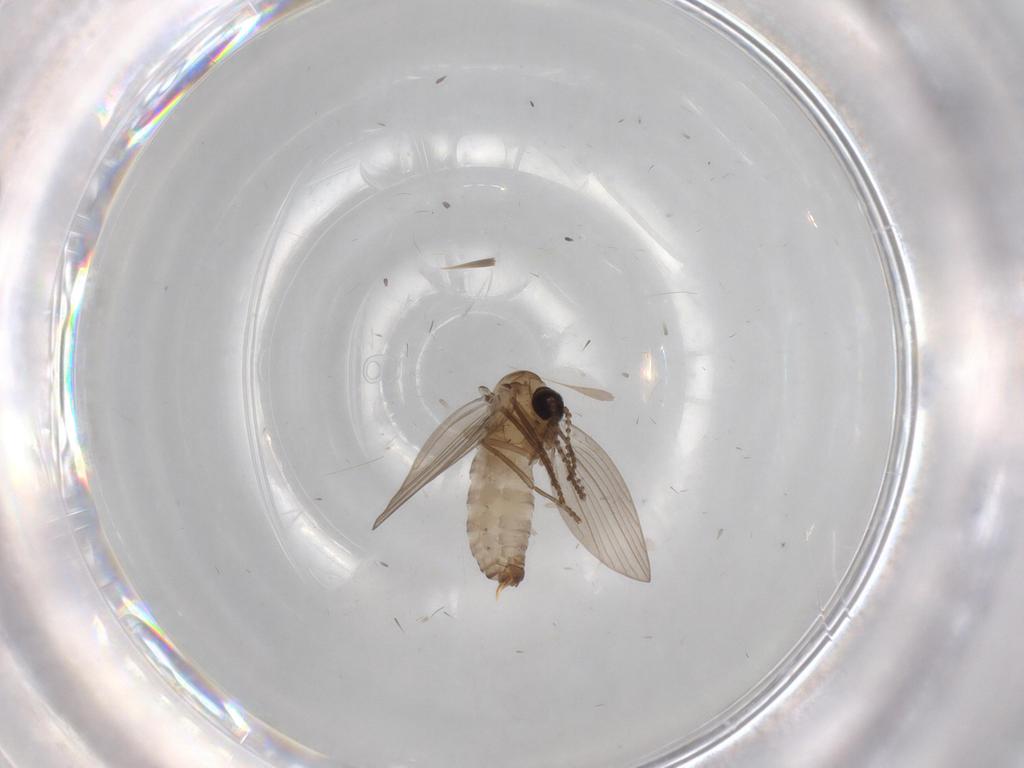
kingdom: Animalia
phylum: Arthropoda
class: Insecta
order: Diptera
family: Psychodidae
